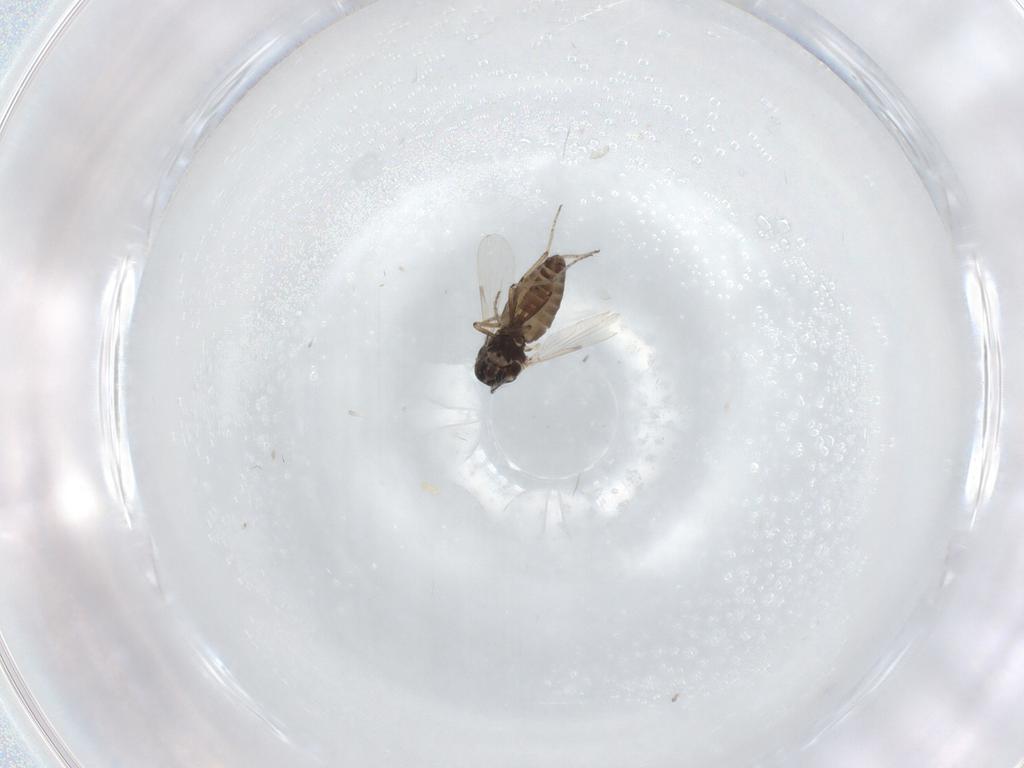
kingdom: Animalia
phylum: Arthropoda
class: Insecta
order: Diptera
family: Ceratopogonidae
